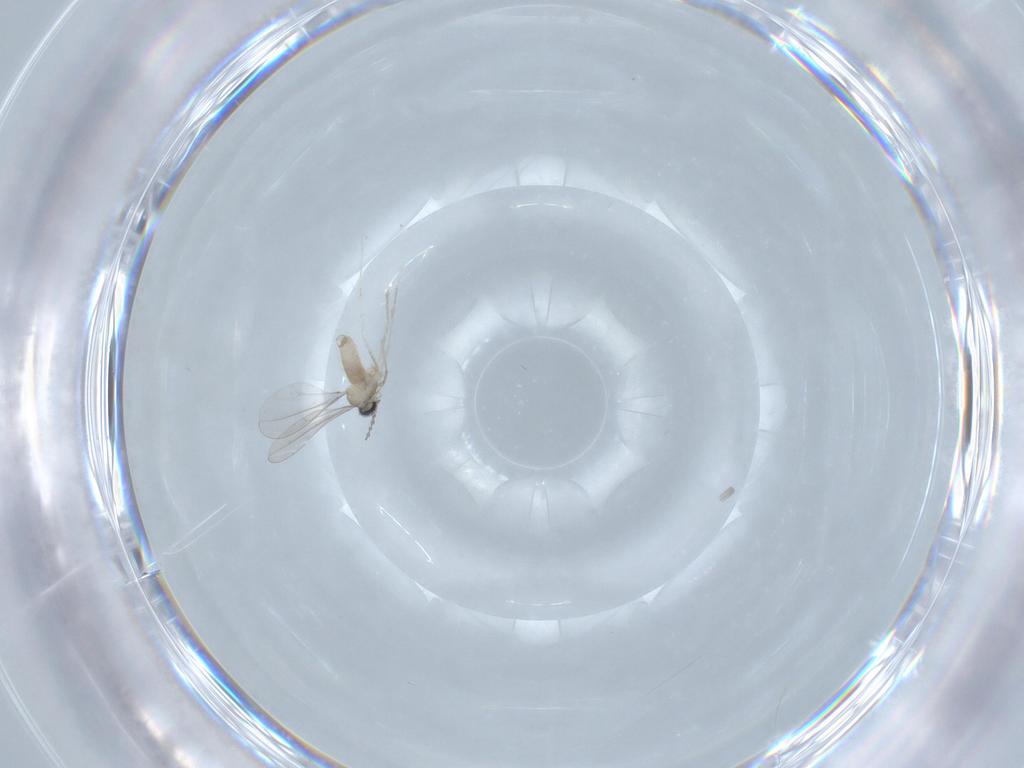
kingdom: Animalia
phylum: Arthropoda
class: Insecta
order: Diptera
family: Cecidomyiidae
